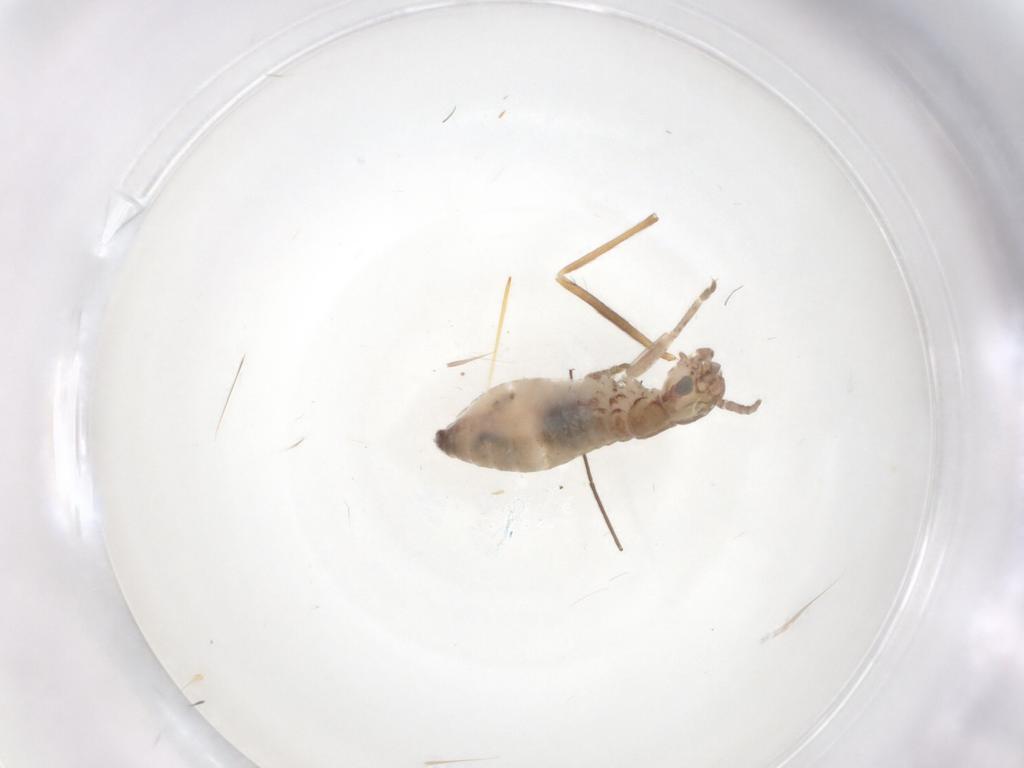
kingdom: Animalia
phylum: Arthropoda
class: Insecta
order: Orthoptera
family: Mogoplistidae
